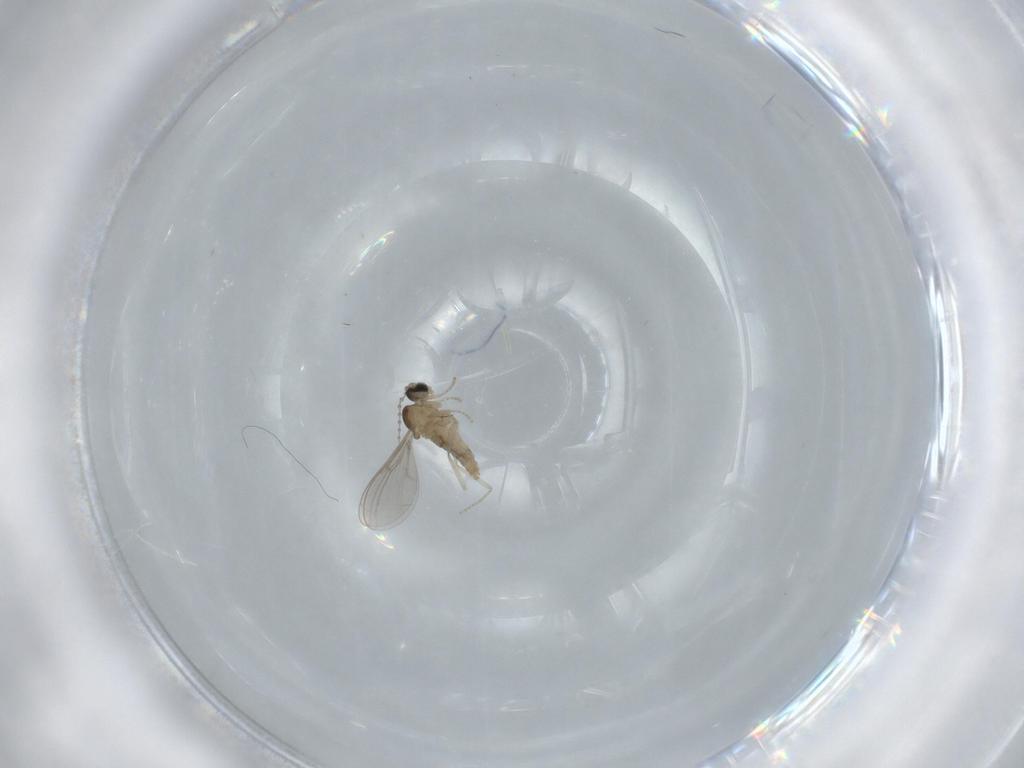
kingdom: Animalia
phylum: Arthropoda
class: Insecta
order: Diptera
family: Cecidomyiidae
